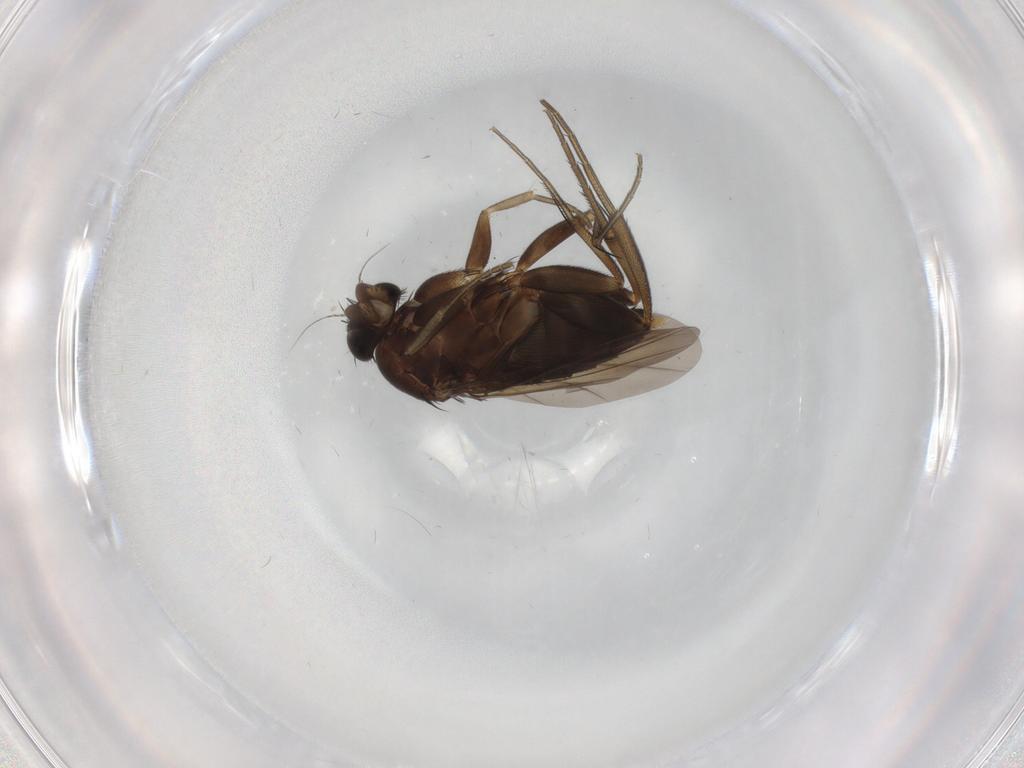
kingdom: Animalia
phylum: Arthropoda
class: Insecta
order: Diptera
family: Phoridae
